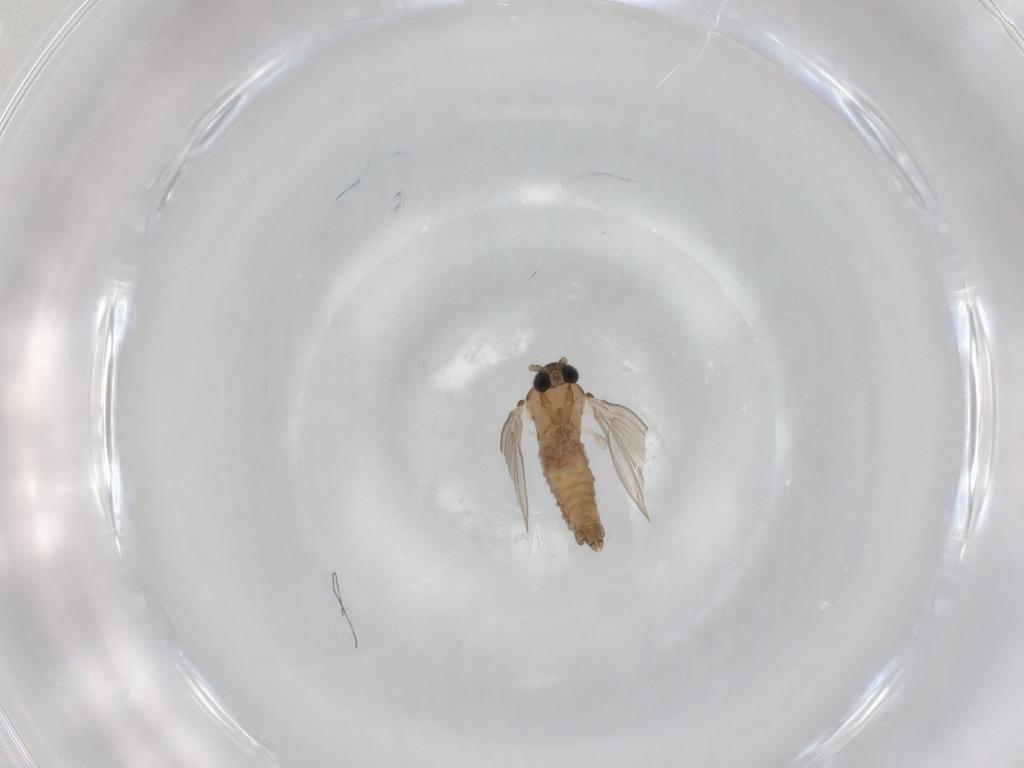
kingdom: Animalia
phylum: Arthropoda
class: Insecta
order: Diptera
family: Psychodidae
